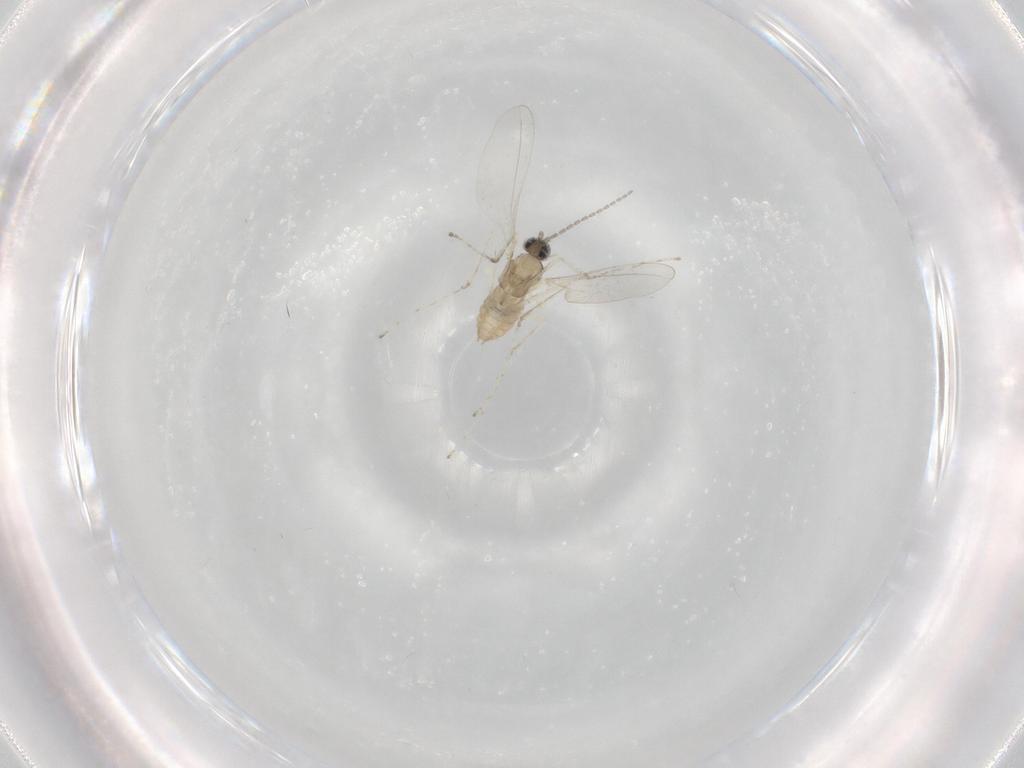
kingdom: Animalia
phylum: Arthropoda
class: Insecta
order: Diptera
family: Cecidomyiidae
